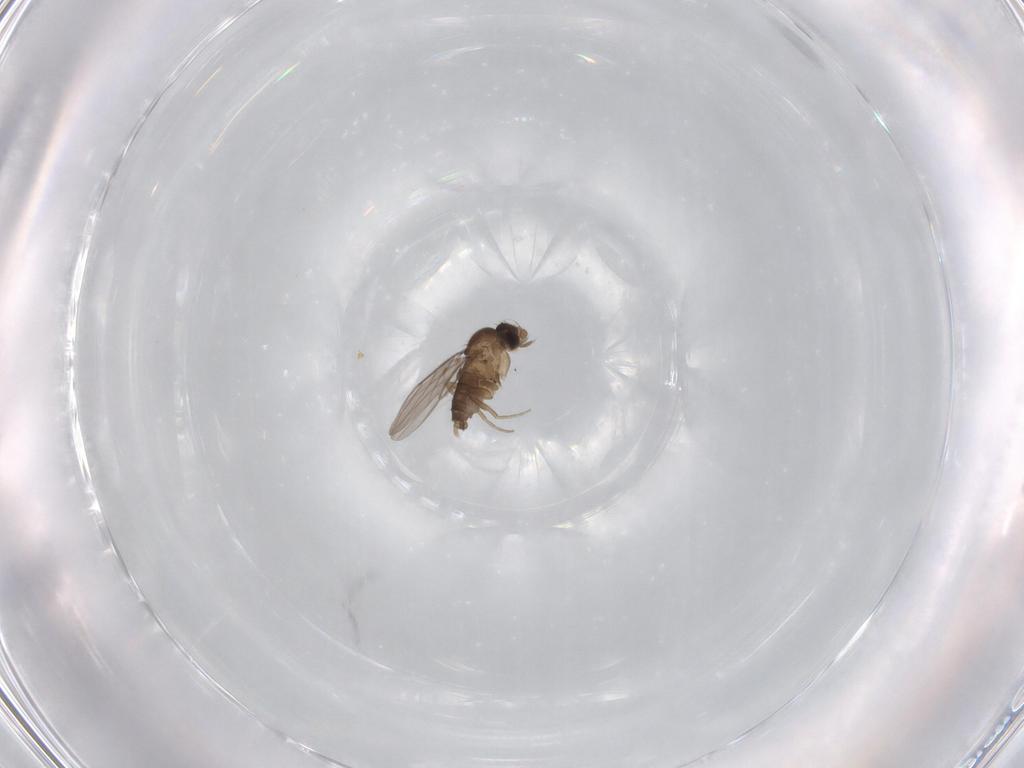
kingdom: Animalia
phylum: Arthropoda
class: Insecta
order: Diptera
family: Phoridae
